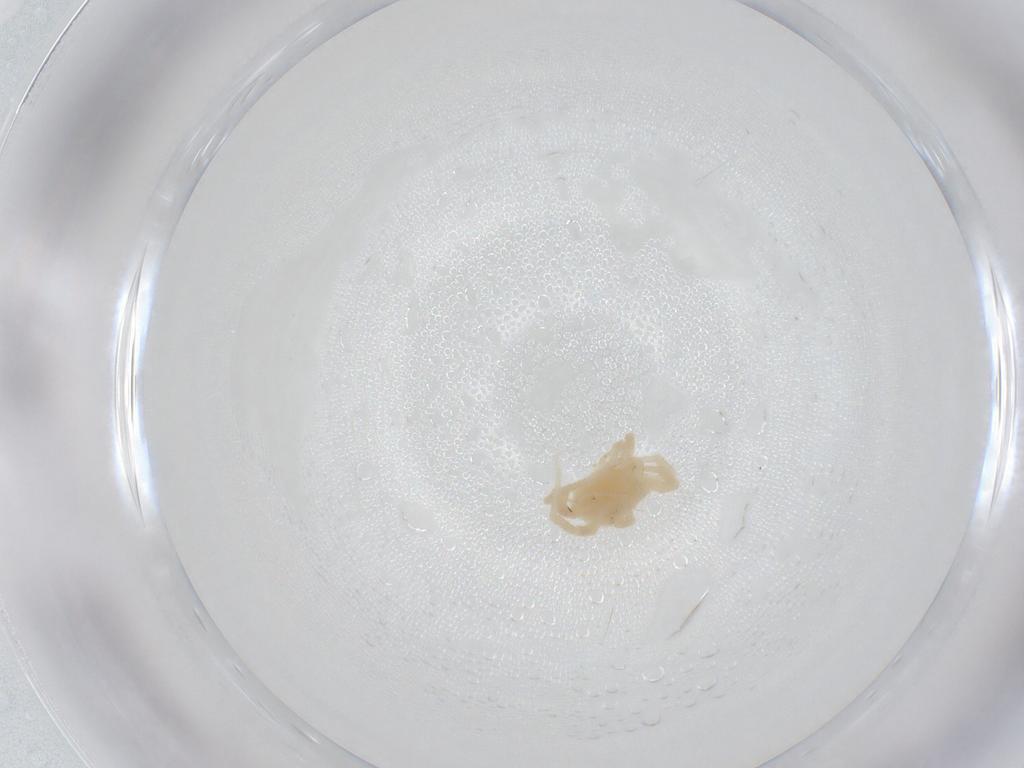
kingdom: Animalia
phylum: Arthropoda
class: Arachnida
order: Trombidiformes
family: Anystidae
